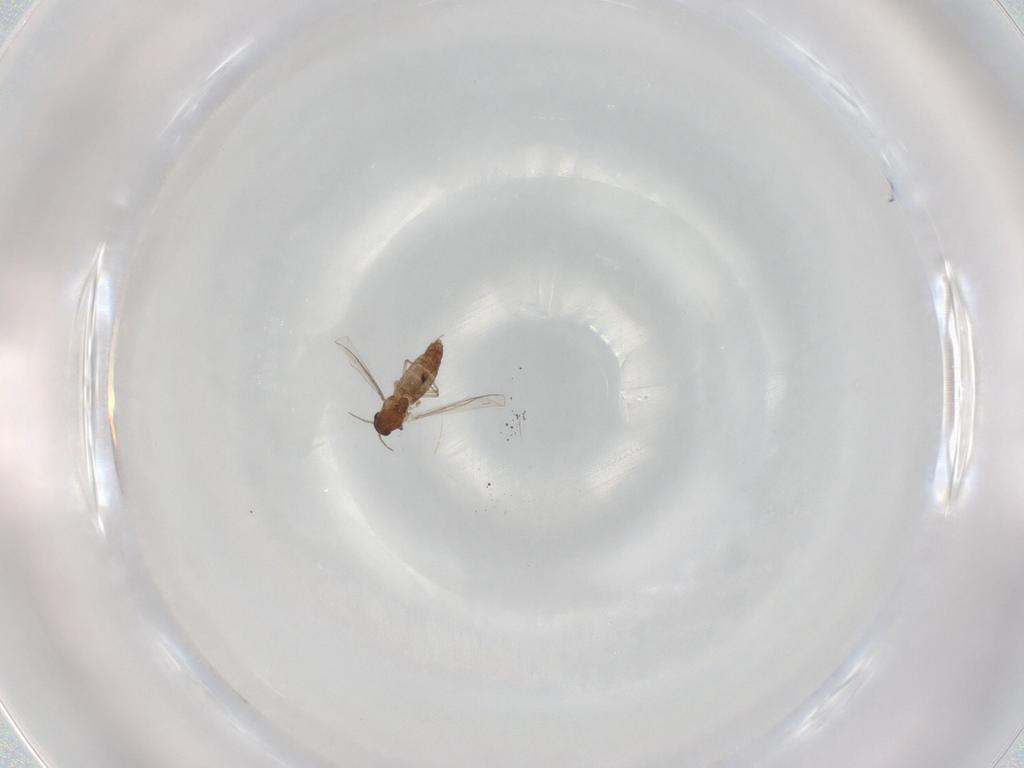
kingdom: Animalia
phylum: Arthropoda
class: Insecta
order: Diptera
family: Chironomidae
